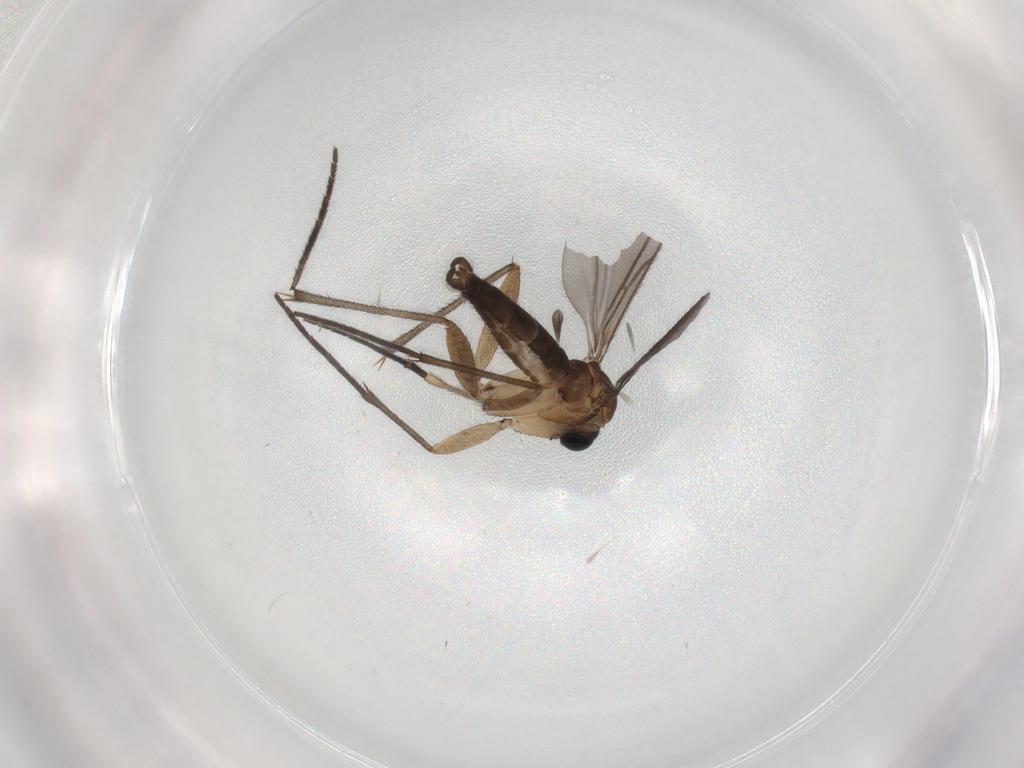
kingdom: Animalia
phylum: Arthropoda
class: Insecta
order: Diptera
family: Sciaridae
